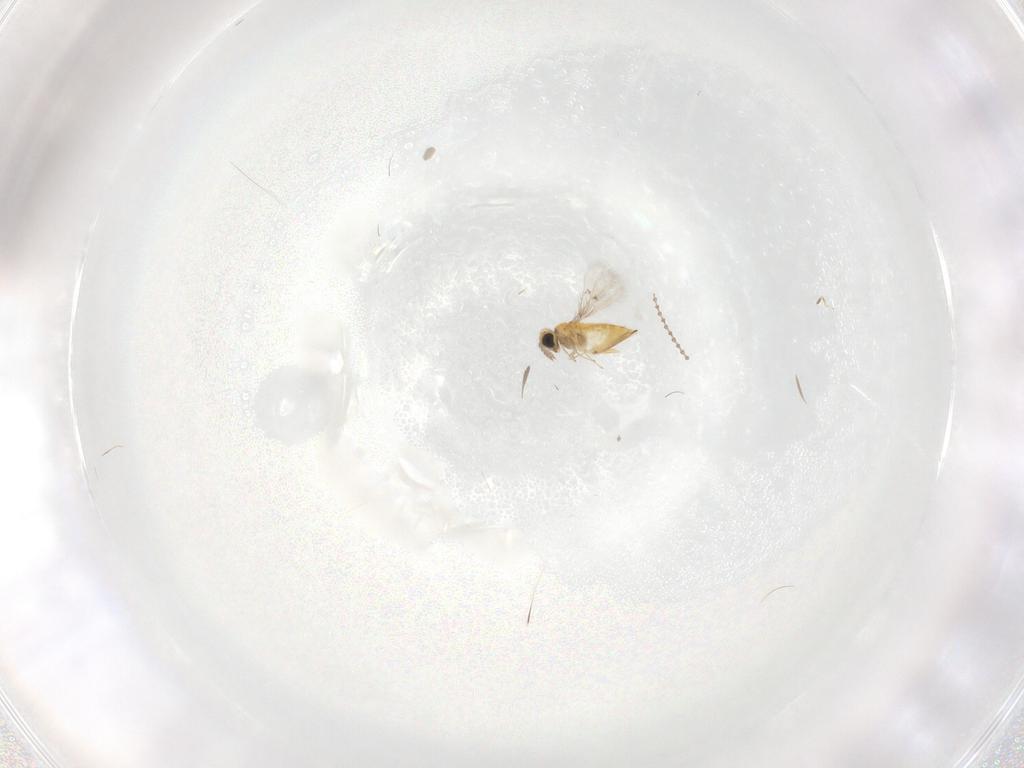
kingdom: Animalia
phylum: Arthropoda
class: Insecta
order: Hymenoptera
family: Trichogrammatidae
